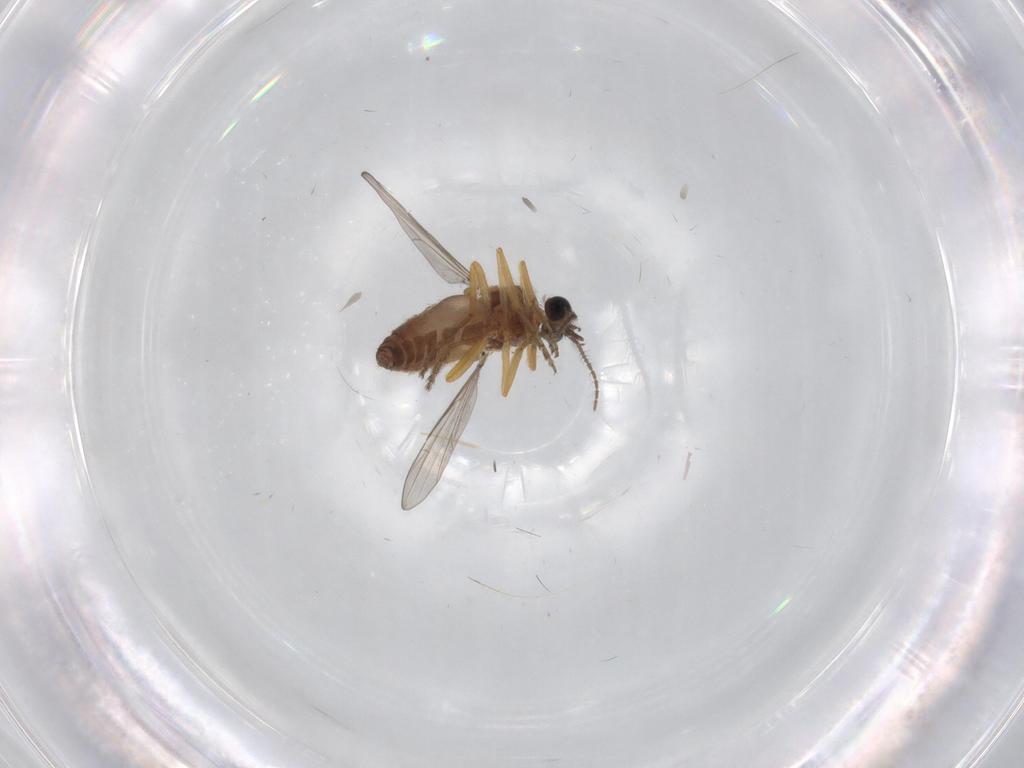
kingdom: Animalia
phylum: Arthropoda
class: Insecta
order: Diptera
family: Ceratopogonidae
